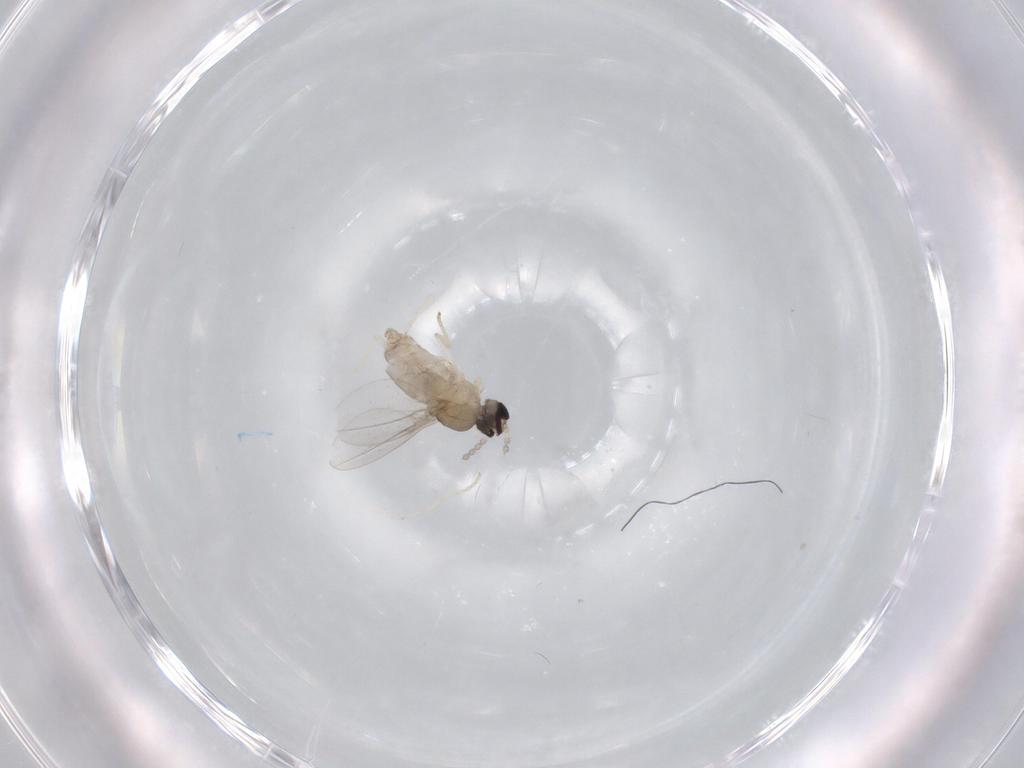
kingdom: Animalia
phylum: Arthropoda
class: Insecta
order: Diptera
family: Cecidomyiidae
